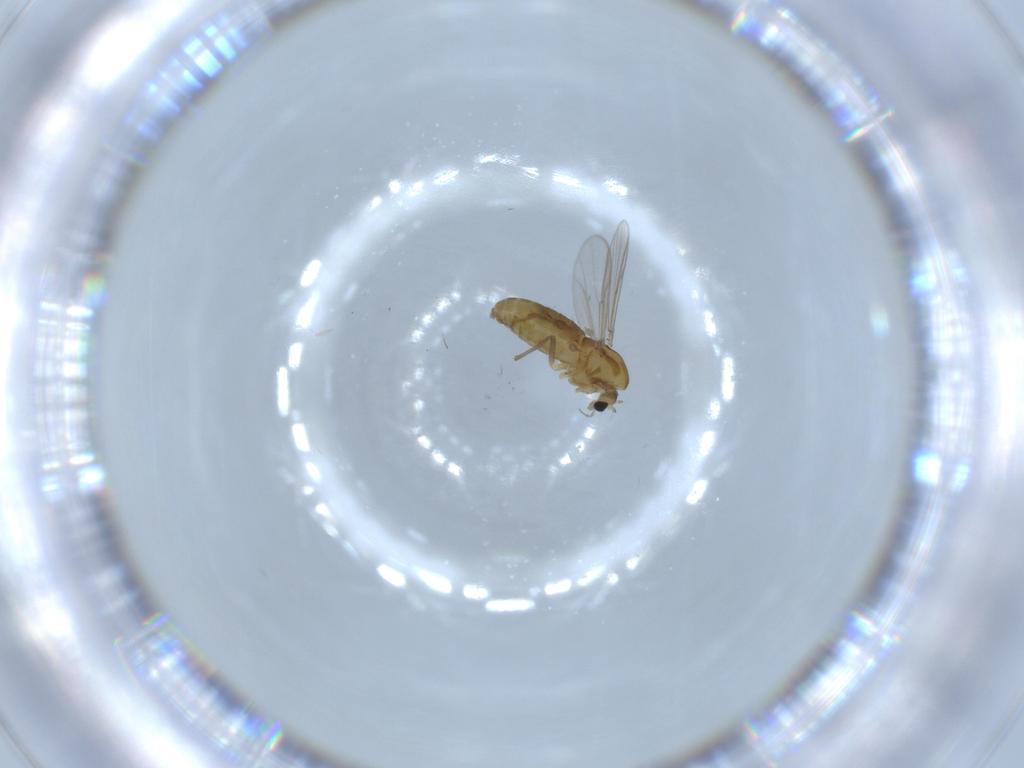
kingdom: Animalia
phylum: Arthropoda
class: Insecta
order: Diptera
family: Chironomidae
